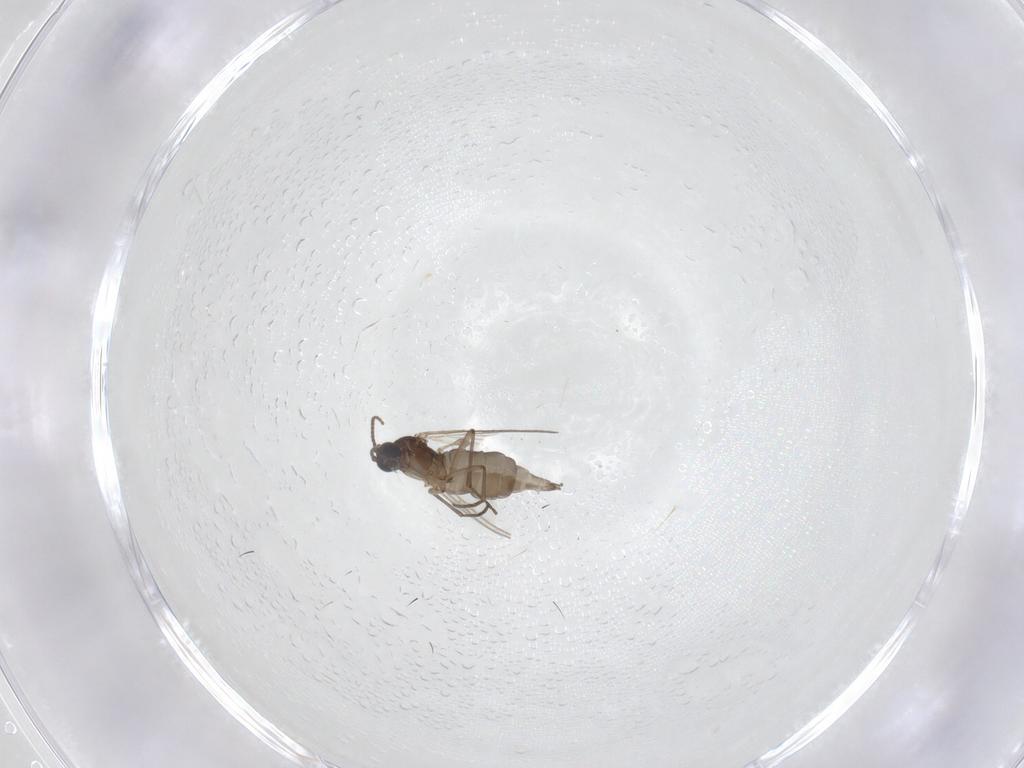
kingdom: Animalia
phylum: Arthropoda
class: Insecta
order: Diptera
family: Sciaridae
